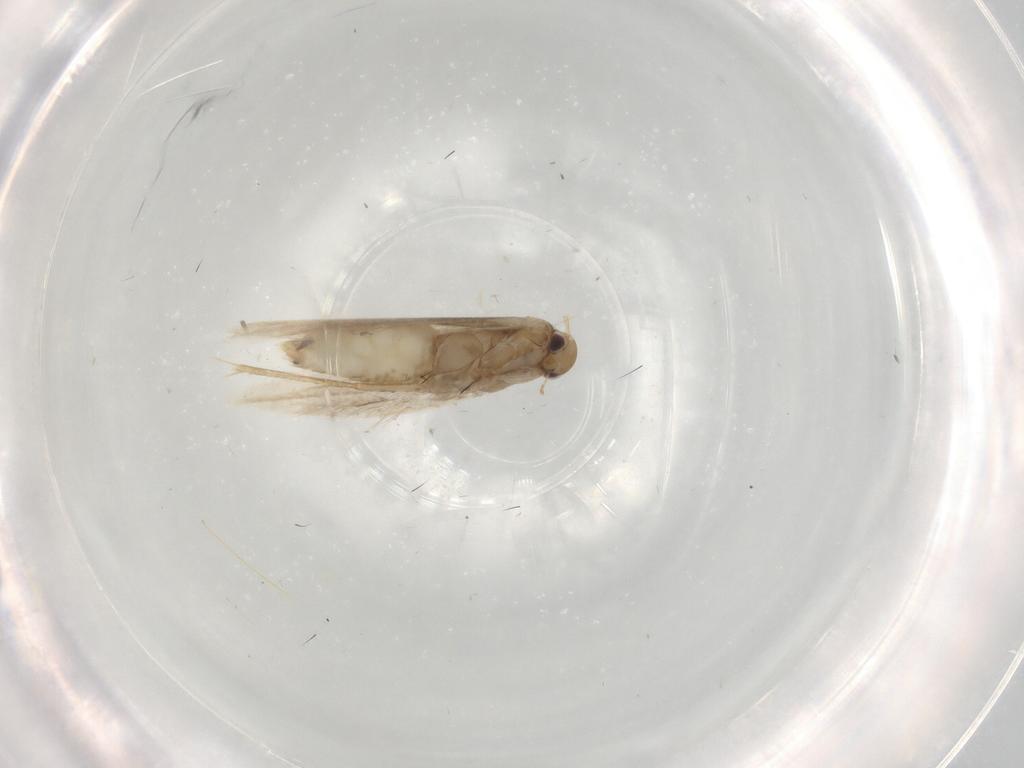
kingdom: Animalia
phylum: Arthropoda
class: Insecta
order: Lepidoptera
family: Gracillariidae
